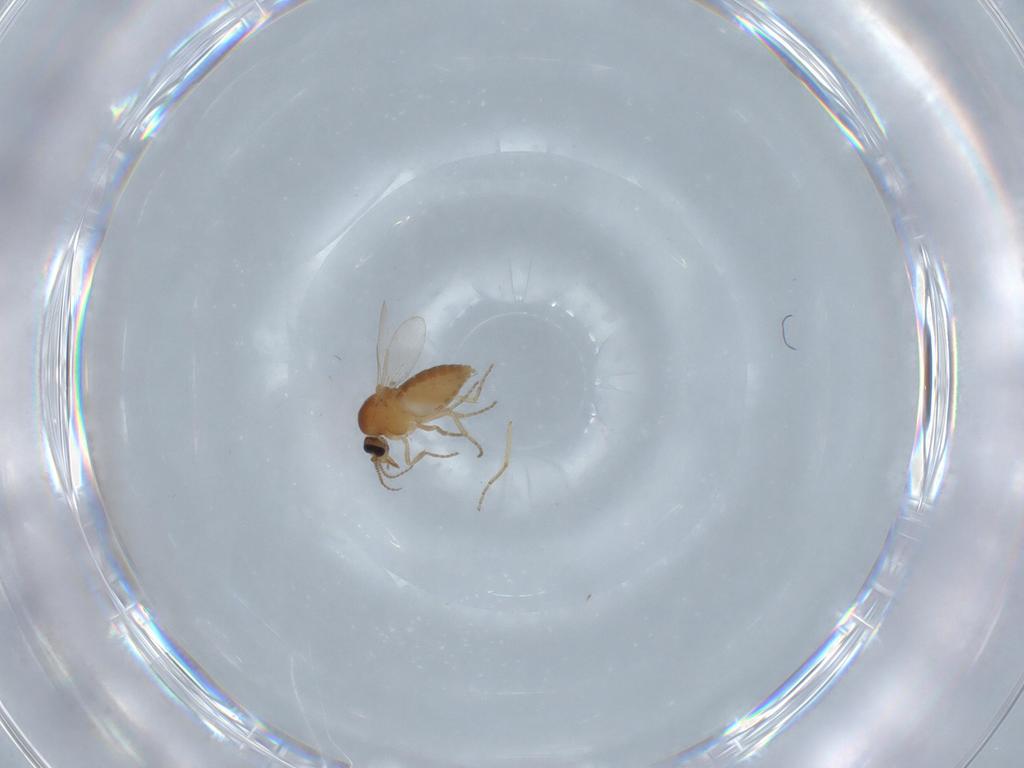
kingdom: Animalia
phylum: Arthropoda
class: Insecta
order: Diptera
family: Ceratopogonidae
